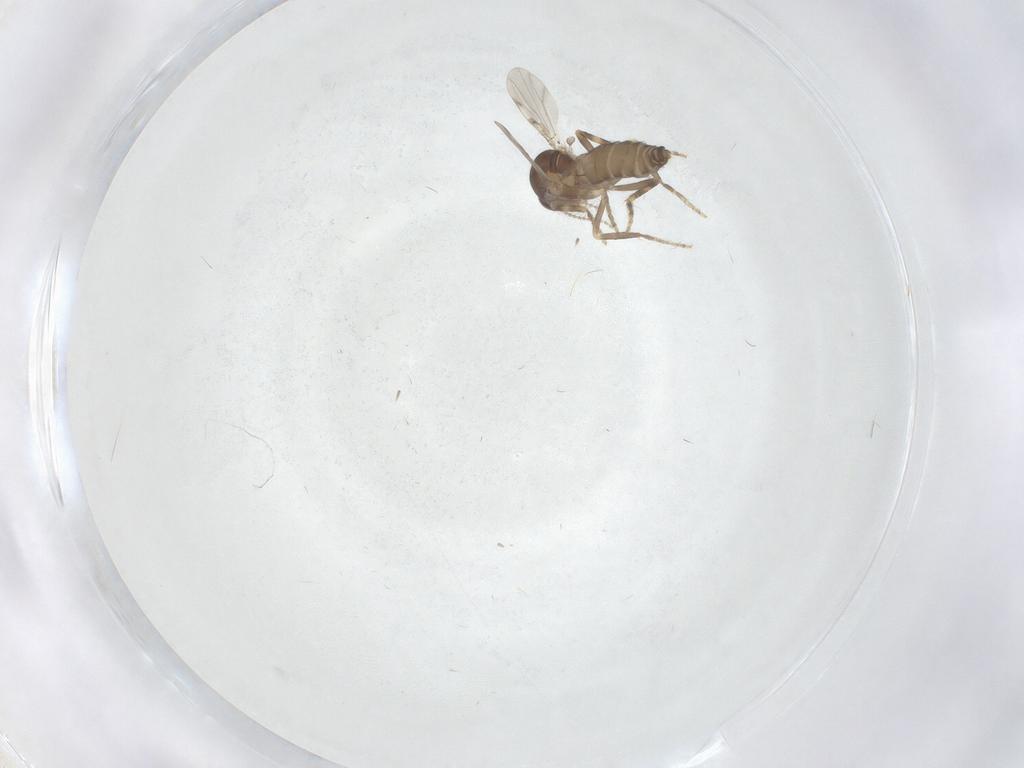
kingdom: Animalia
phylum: Arthropoda
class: Insecta
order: Diptera
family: Ceratopogonidae
